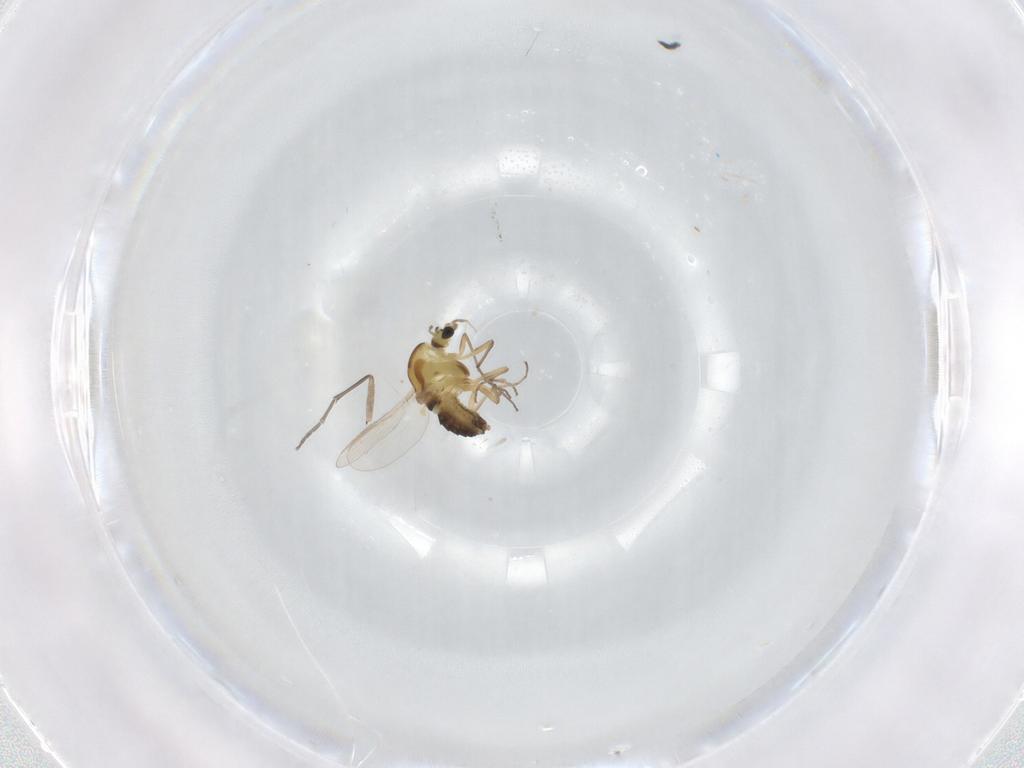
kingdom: Animalia
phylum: Arthropoda
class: Insecta
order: Diptera
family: Chironomidae
